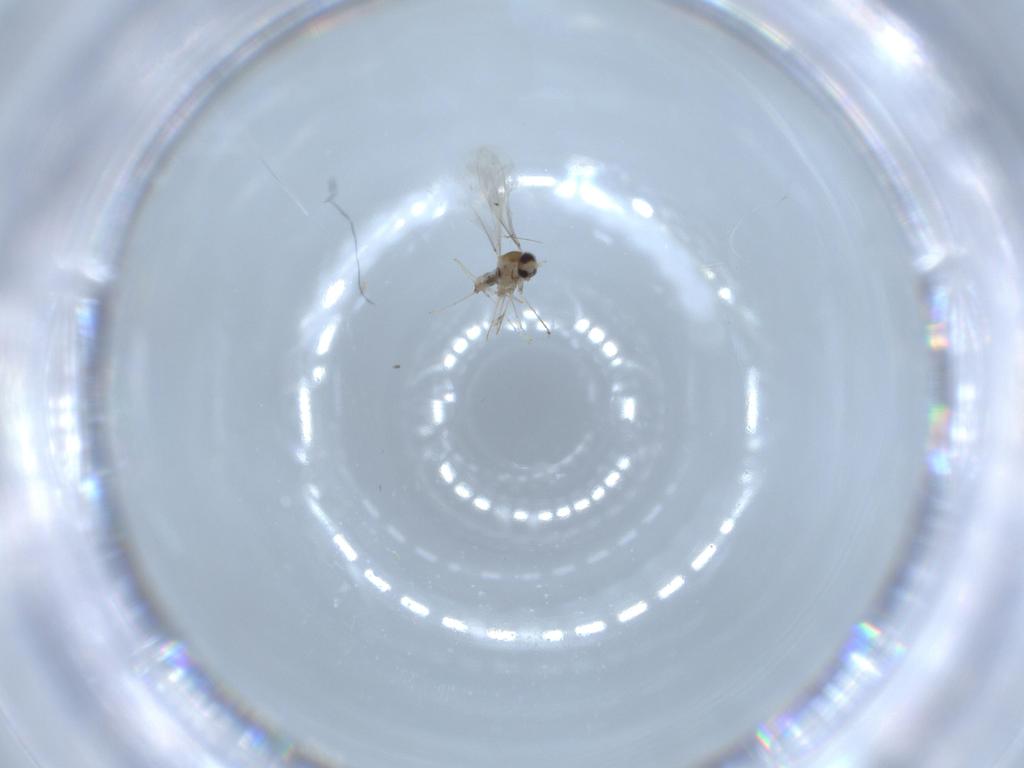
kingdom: Animalia
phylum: Arthropoda
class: Insecta
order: Diptera
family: Cecidomyiidae
